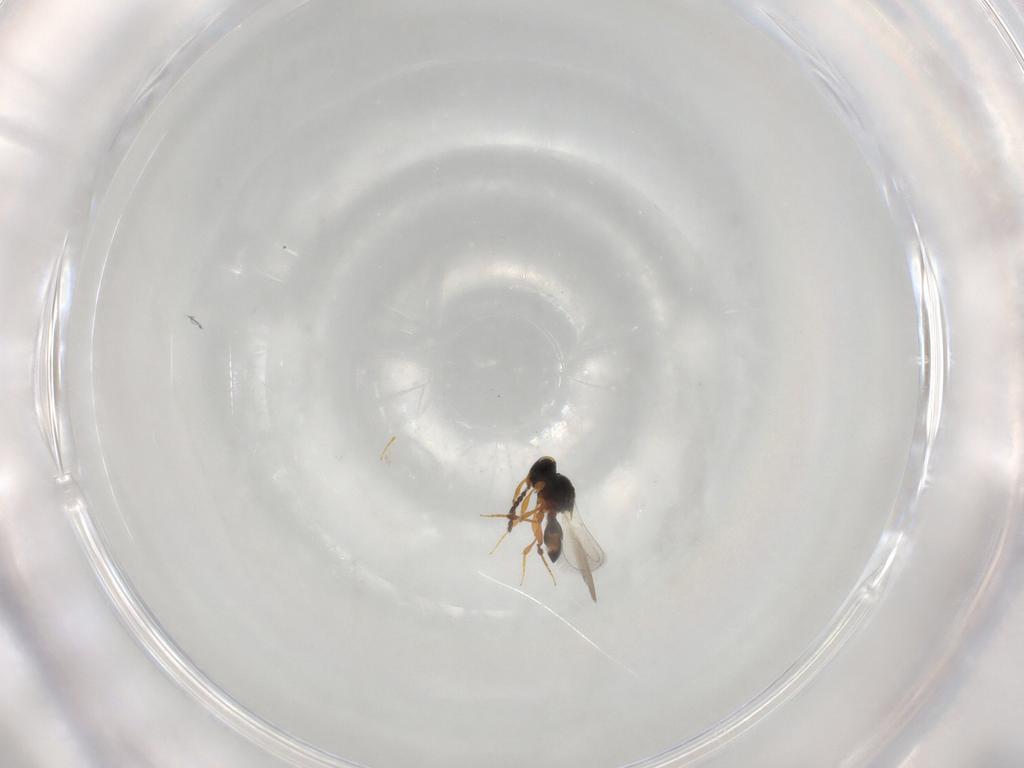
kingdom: Animalia
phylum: Arthropoda
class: Insecta
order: Hymenoptera
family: Platygastridae
